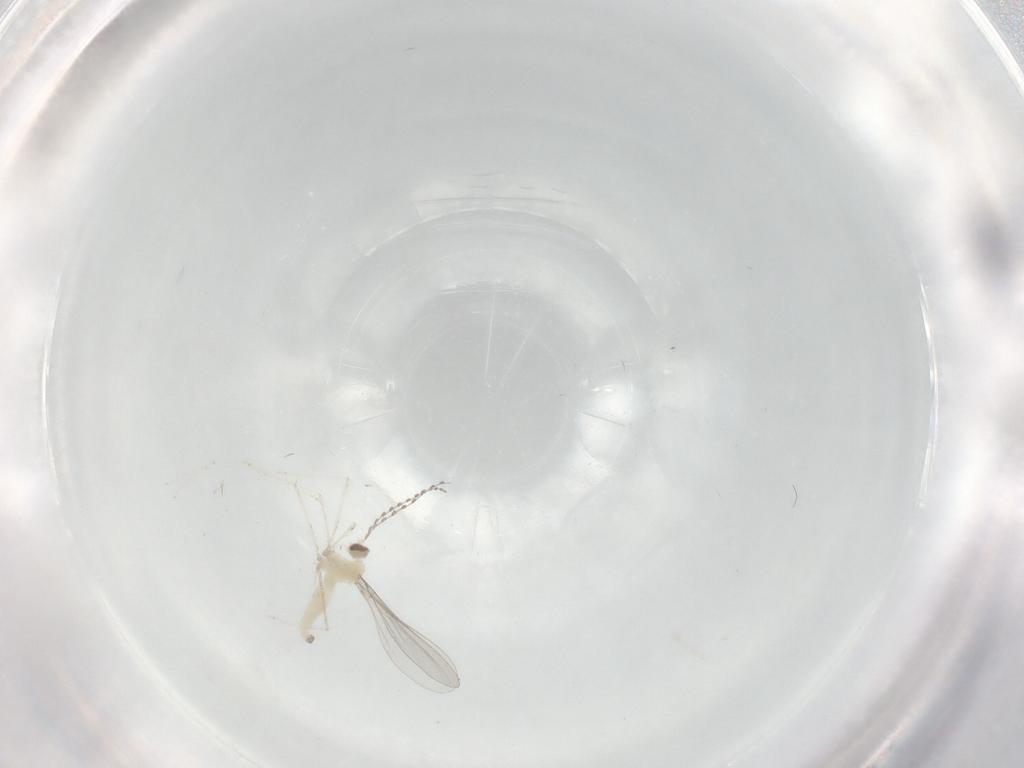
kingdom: Animalia
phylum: Arthropoda
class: Insecta
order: Diptera
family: Cecidomyiidae
